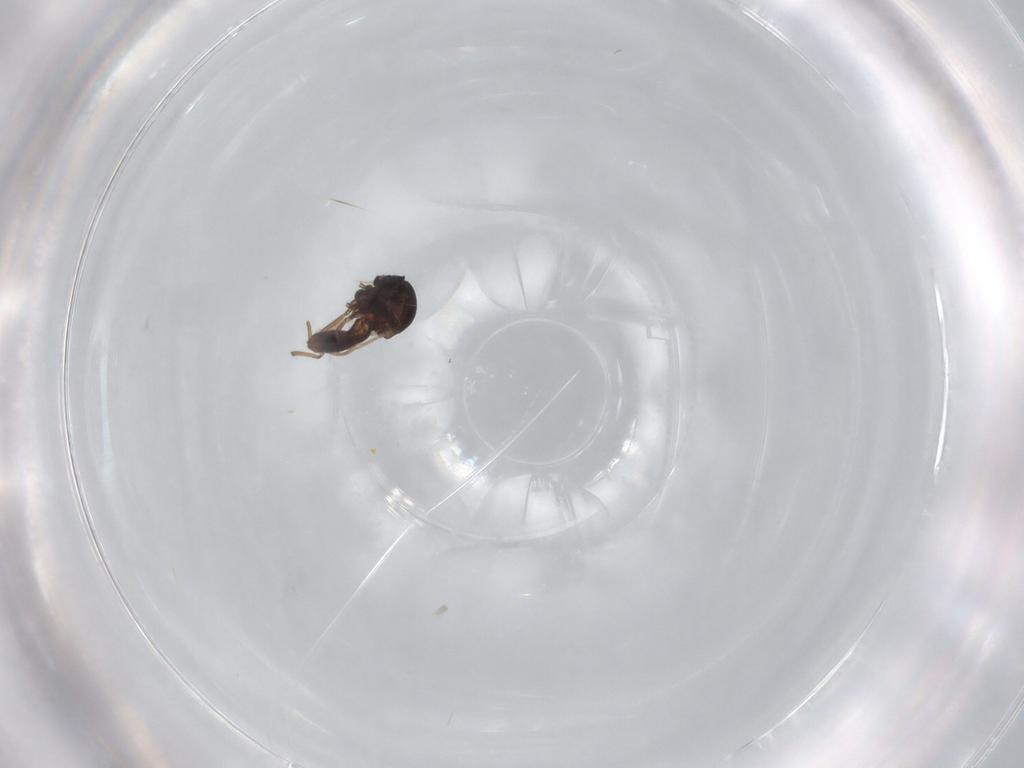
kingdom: Animalia
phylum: Arthropoda
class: Insecta
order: Diptera
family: Ceratopogonidae
